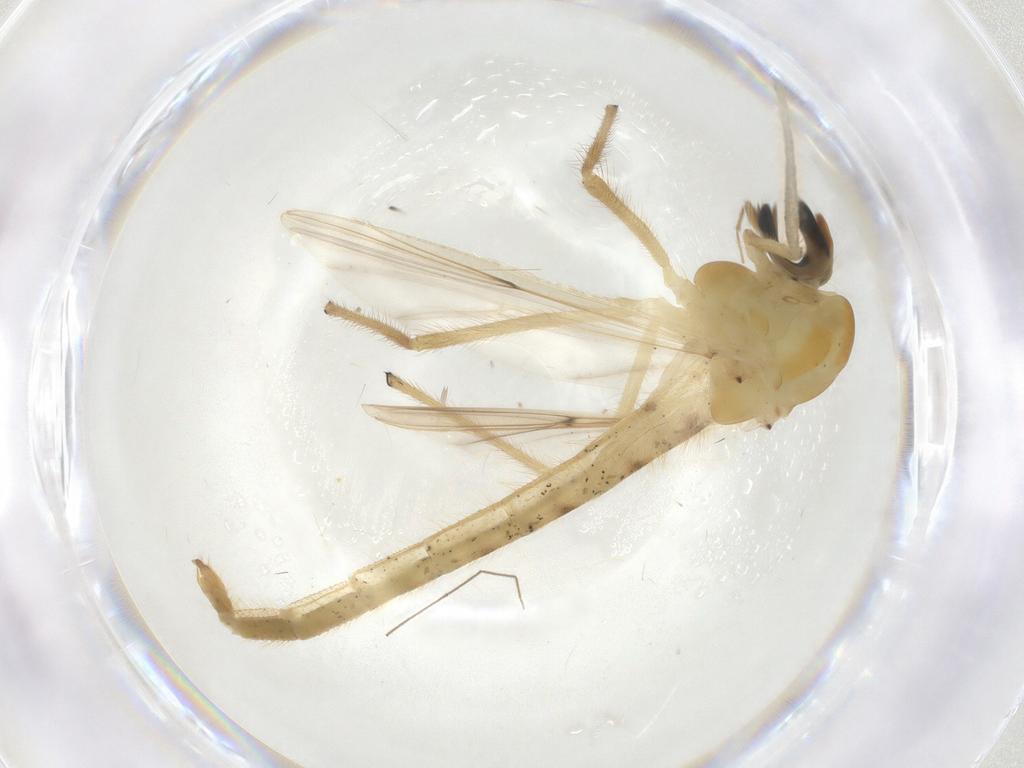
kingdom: Animalia
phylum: Arthropoda
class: Insecta
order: Diptera
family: Chironomidae
